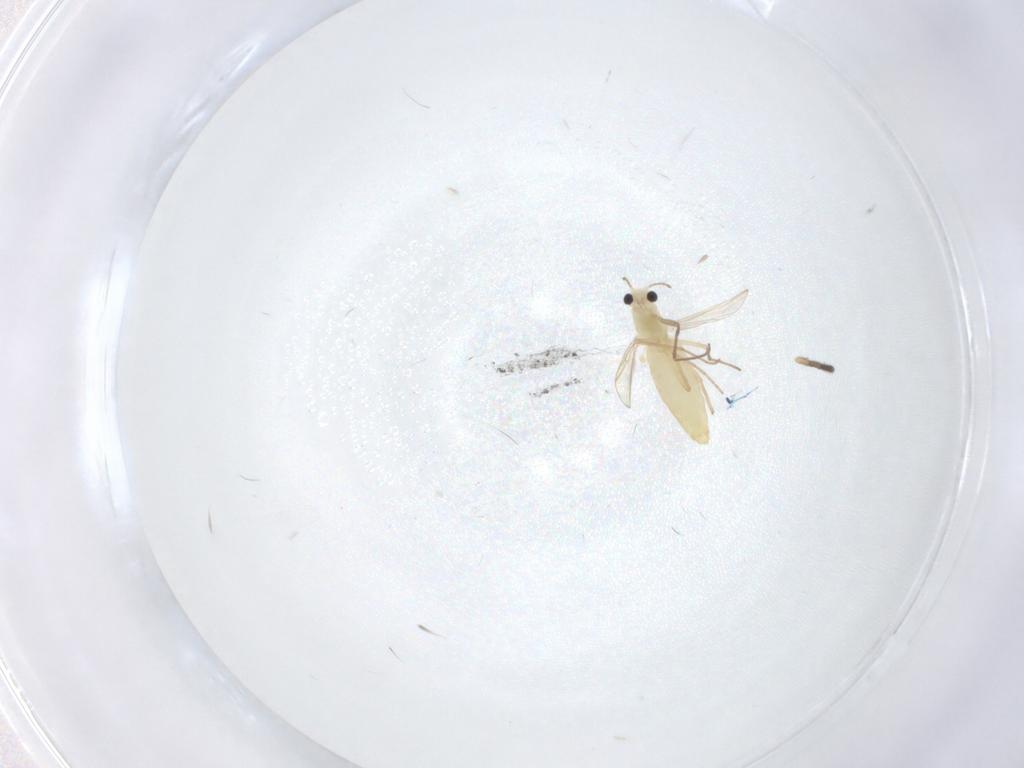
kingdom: Animalia
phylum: Arthropoda
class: Insecta
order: Diptera
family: Chironomidae
